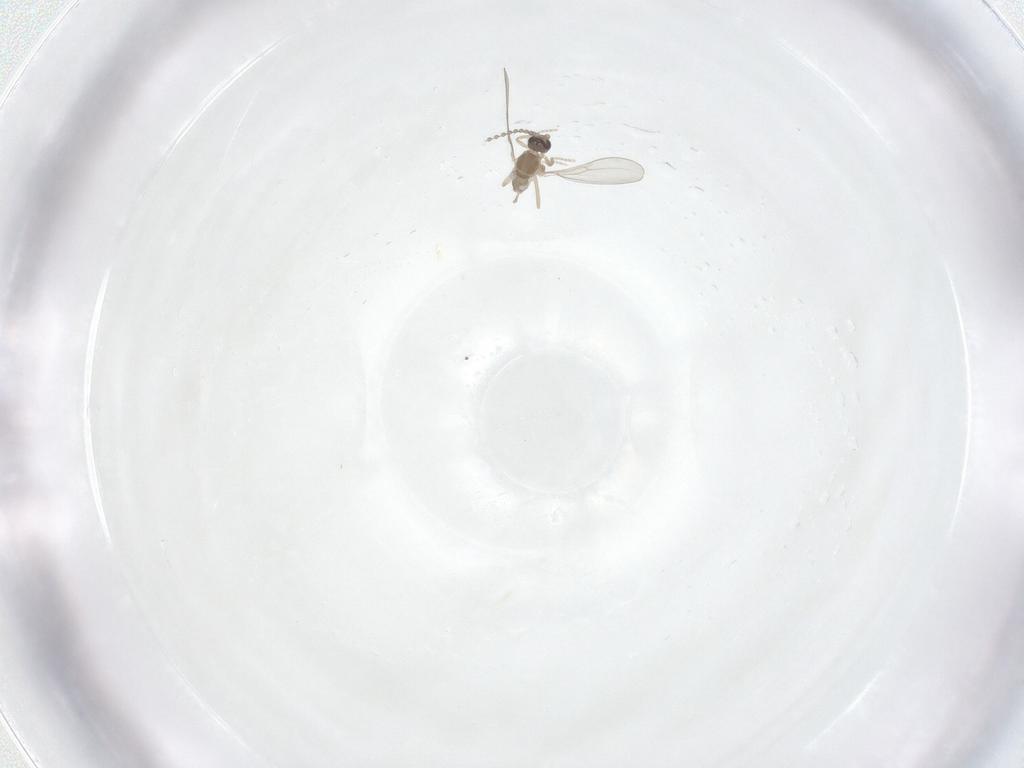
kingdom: Animalia
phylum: Arthropoda
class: Insecta
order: Diptera
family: Cecidomyiidae
